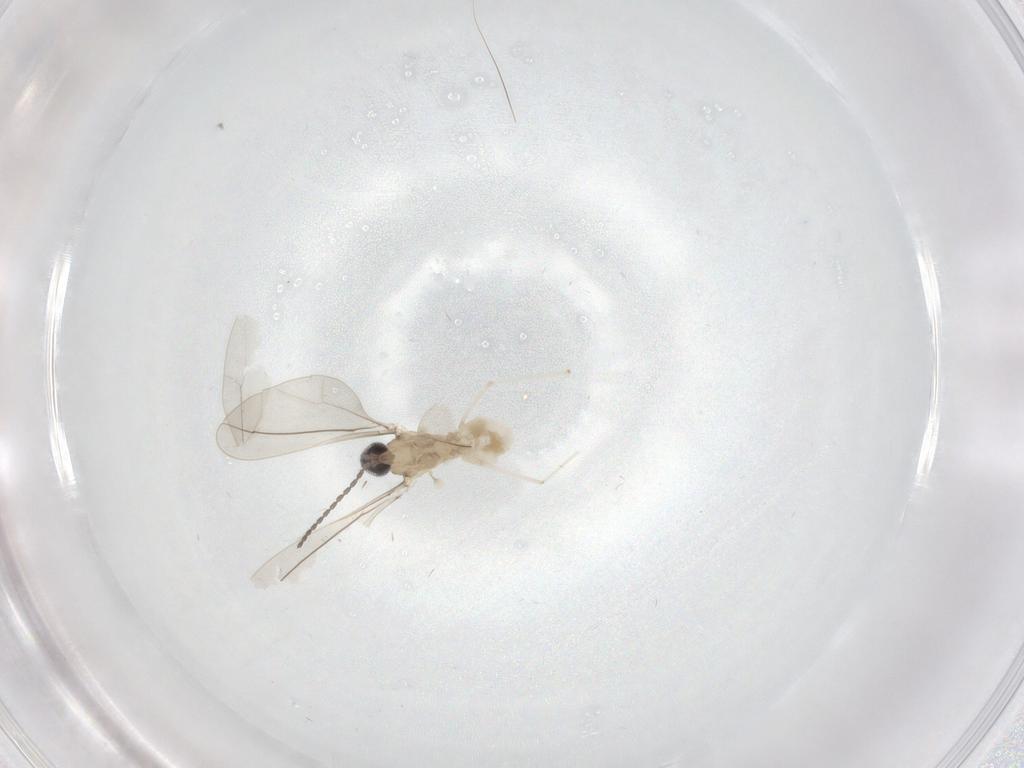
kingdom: Animalia
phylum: Arthropoda
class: Insecta
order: Diptera
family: Cecidomyiidae
